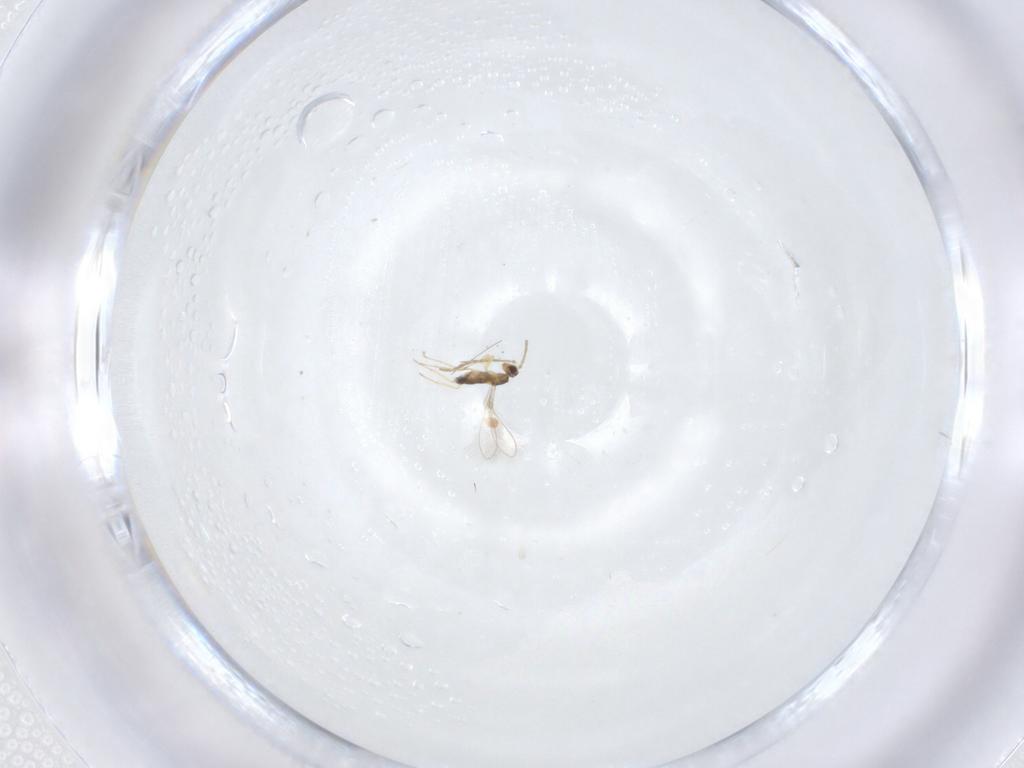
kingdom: Animalia
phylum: Arthropoda
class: Insecta
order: Hymenoptera
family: Mymaridae
